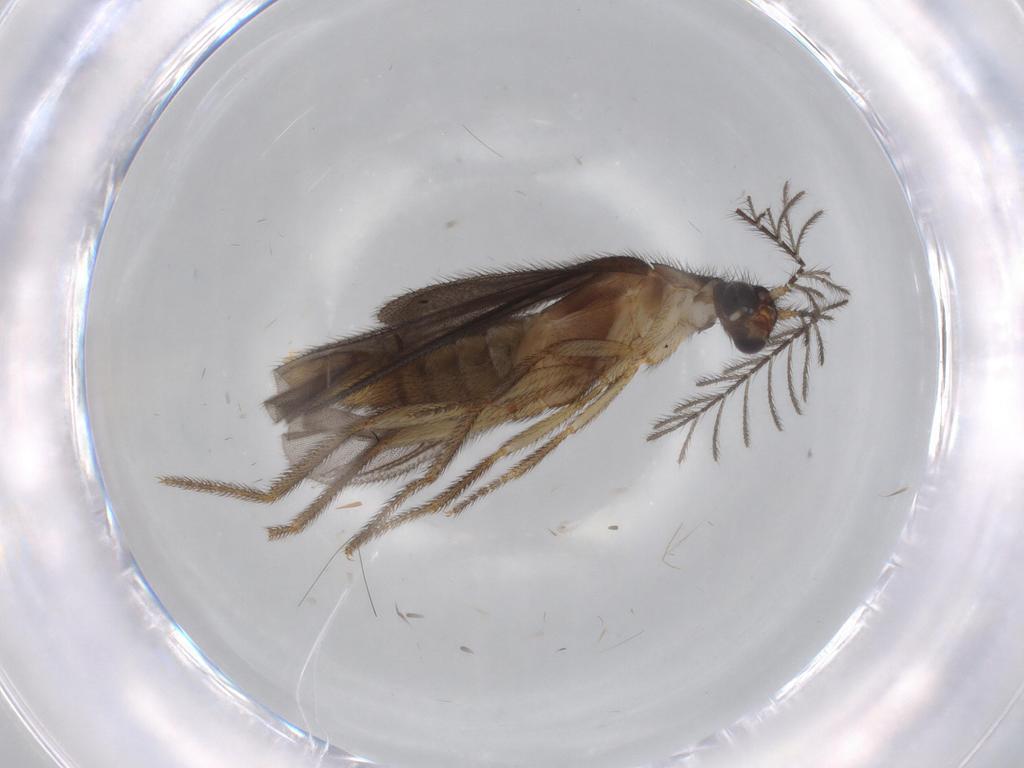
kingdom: Animalia
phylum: Arthropoda
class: Insecta
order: Coleoptera
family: Phengodidae
